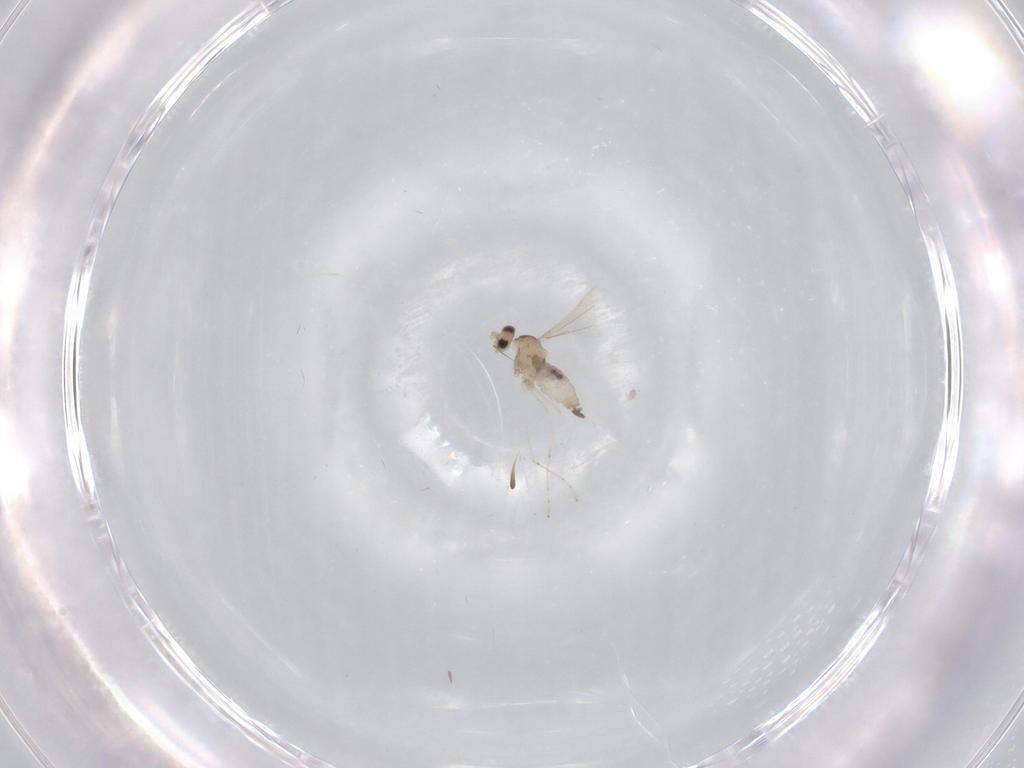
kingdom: Animalia
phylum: Arthropoda
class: Insecta
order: Diptera
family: Cecidomyiidae
